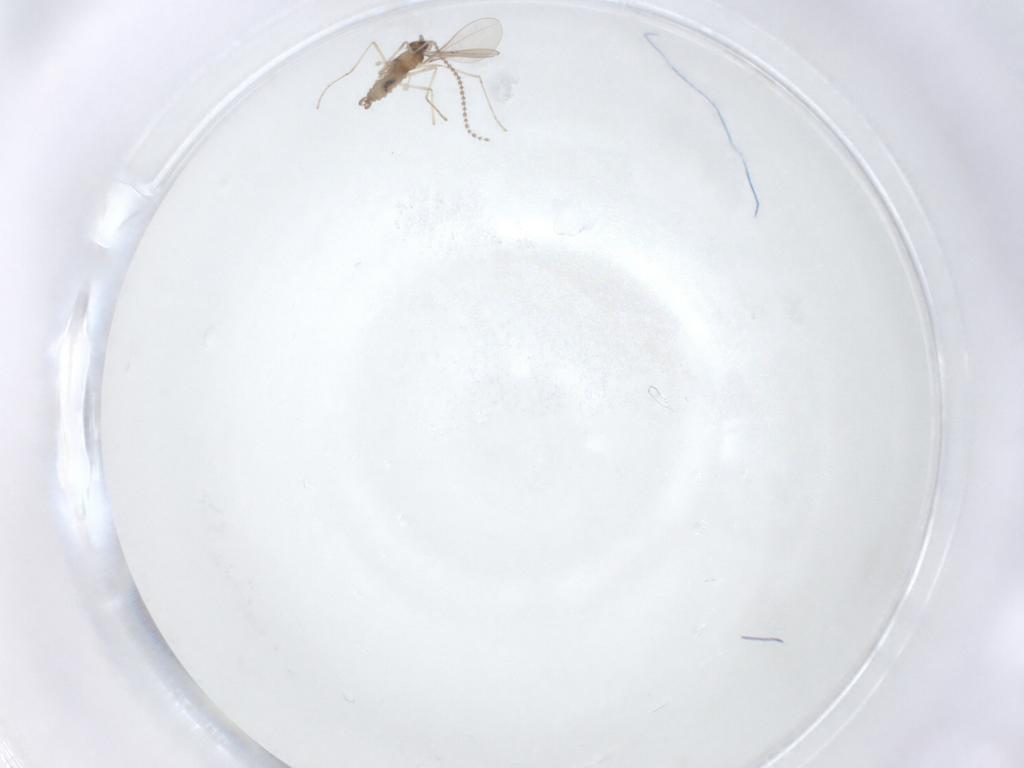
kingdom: Animalia
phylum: Arthropoda
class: Insecta
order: Diptera
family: Cecidomyiidae
